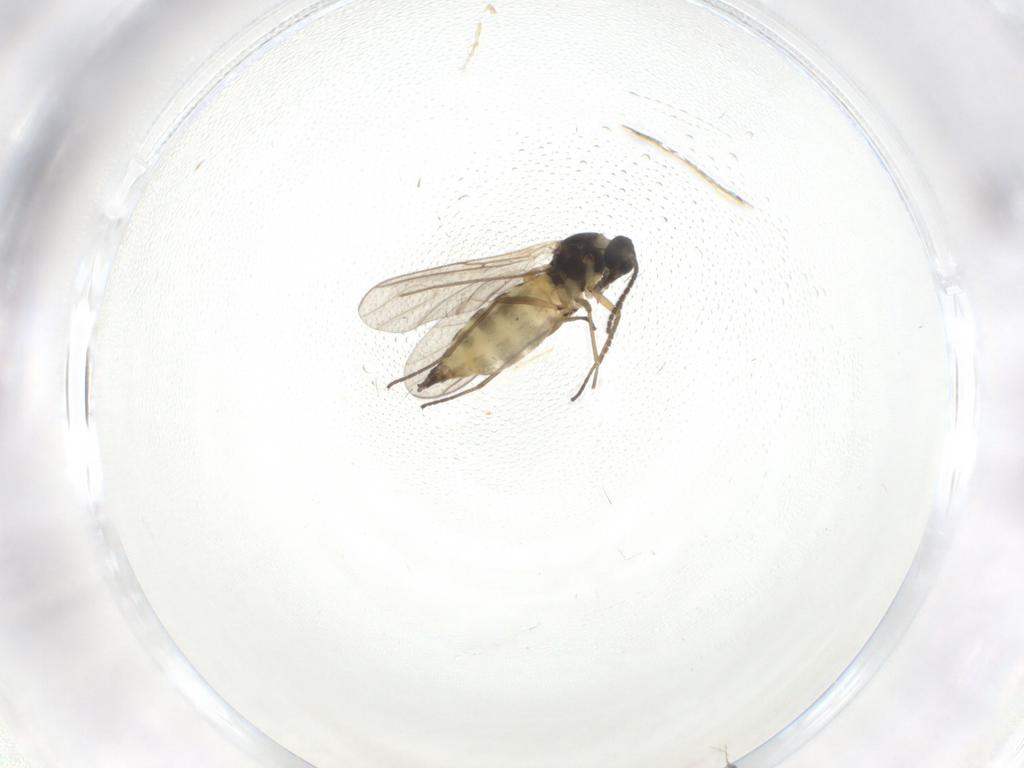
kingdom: Animalia
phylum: Arthropoda
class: Insecta
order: Diptera
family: Sciaridae
